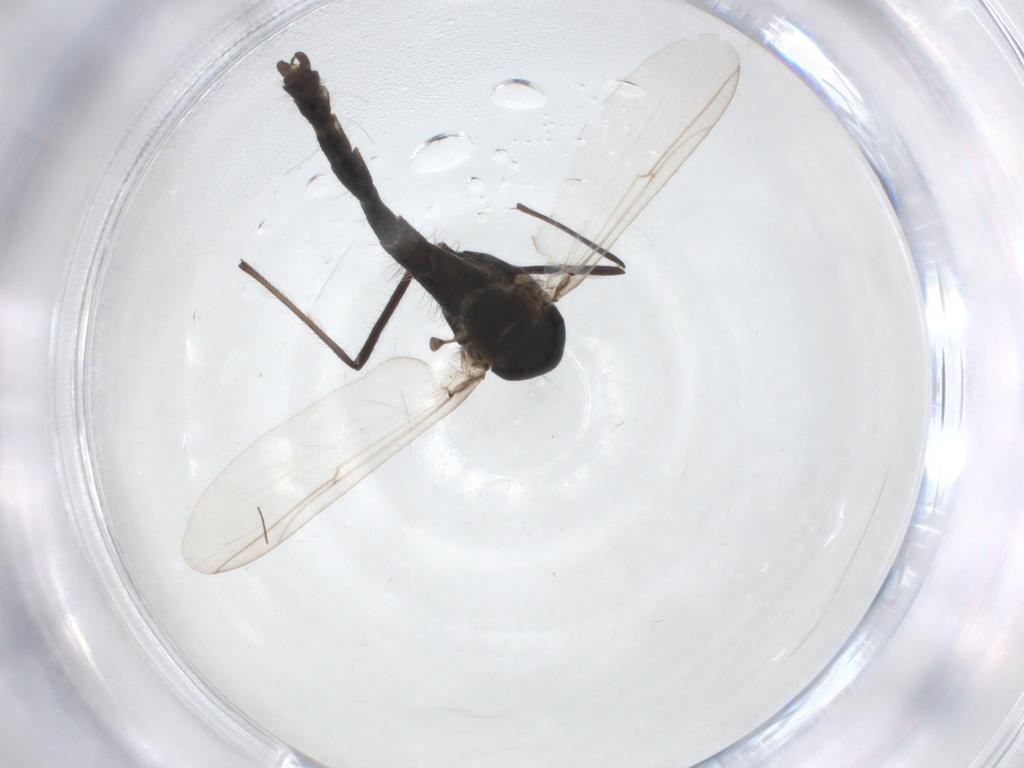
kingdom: Animalia
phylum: Arthropoda
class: Insecta
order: Diptera
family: Chironomidae
